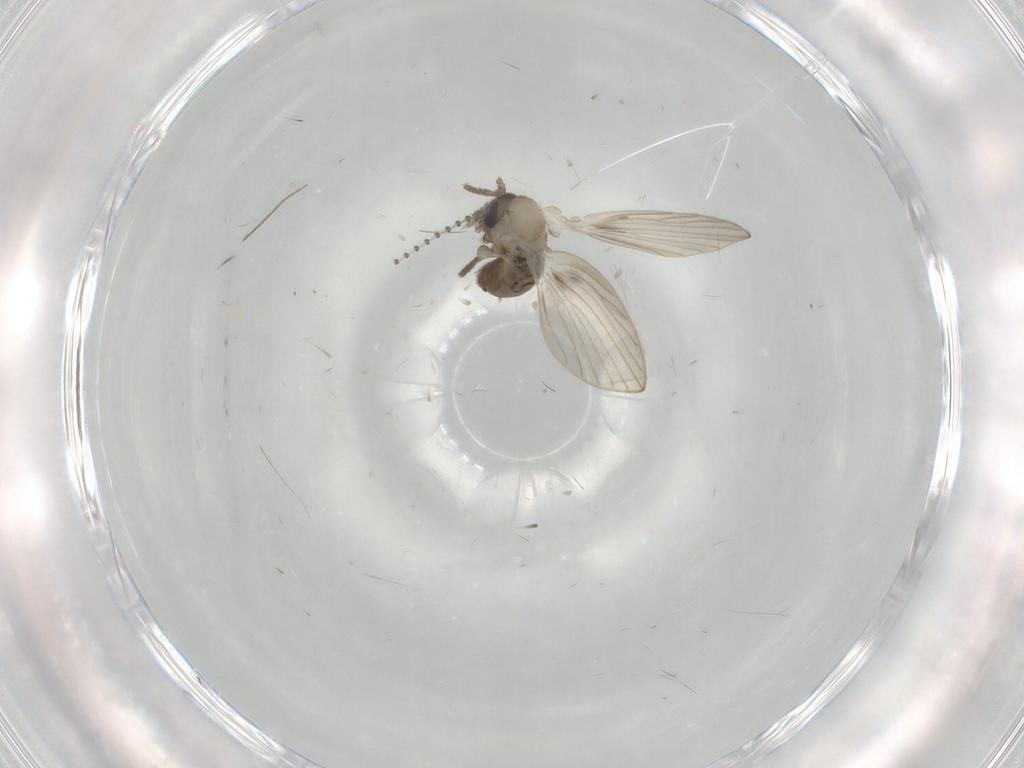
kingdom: Animalia
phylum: Arthropoda
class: Insecta
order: Diptera
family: Psychodidae
